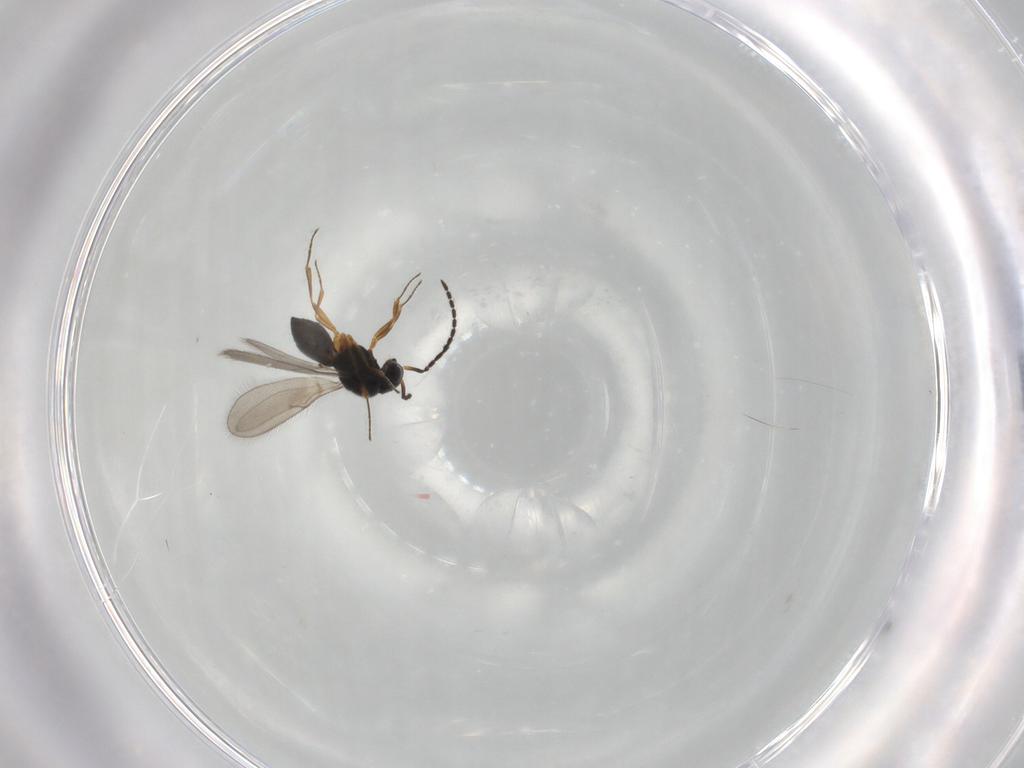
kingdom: Animalia
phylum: Arthropoda
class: Insecta
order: Hymenoptera
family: Scelionidae
